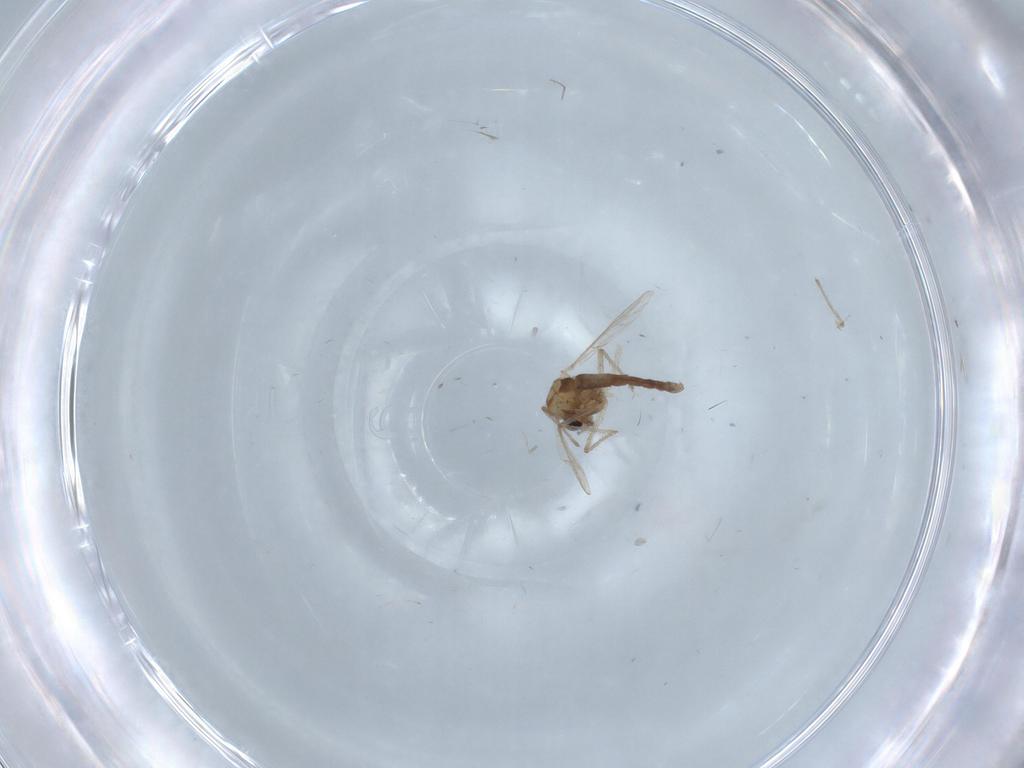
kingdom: Animalia
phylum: Arthropoda
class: Insecta
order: Diptera
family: Chironomidae
